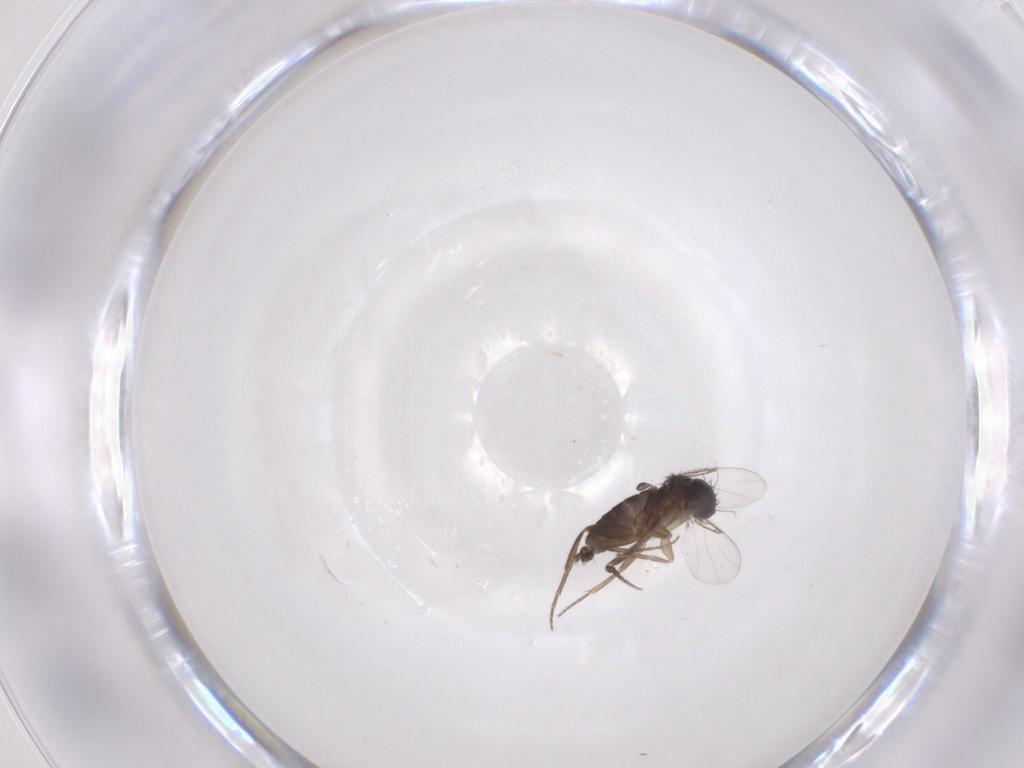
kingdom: Animalia
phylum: Arthropoda
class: Insecta
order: Diptera
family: Phoridae
